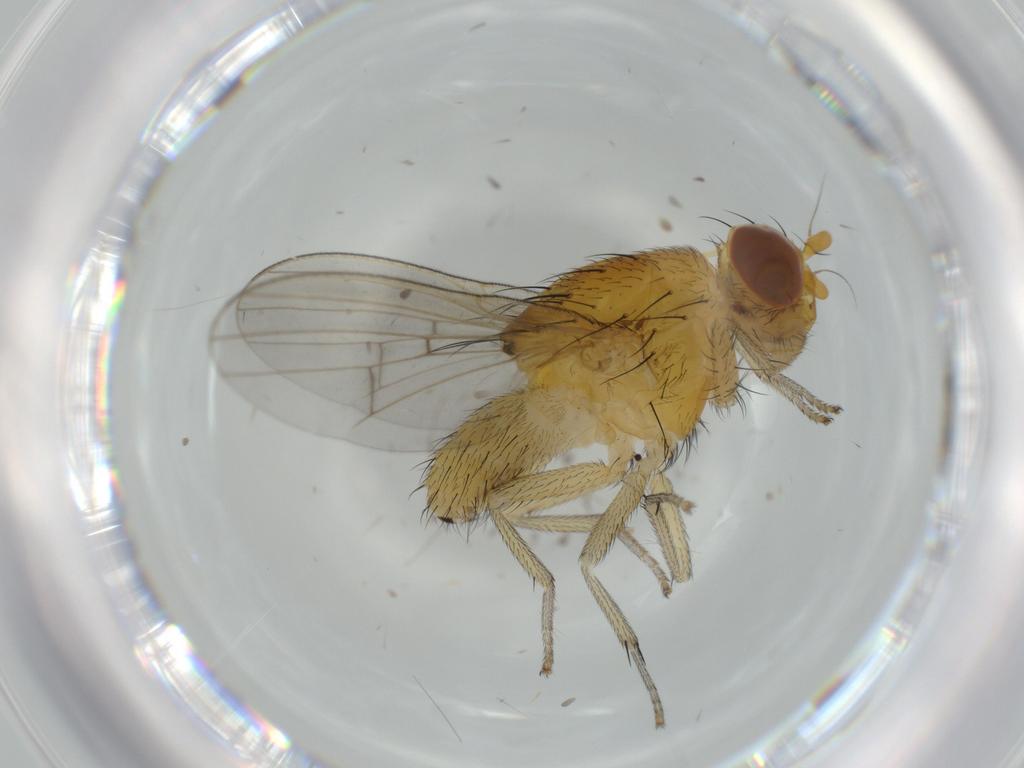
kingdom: Animalia
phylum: Arthropoda
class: Insecta
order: Diptera
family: Lauxaniidae
